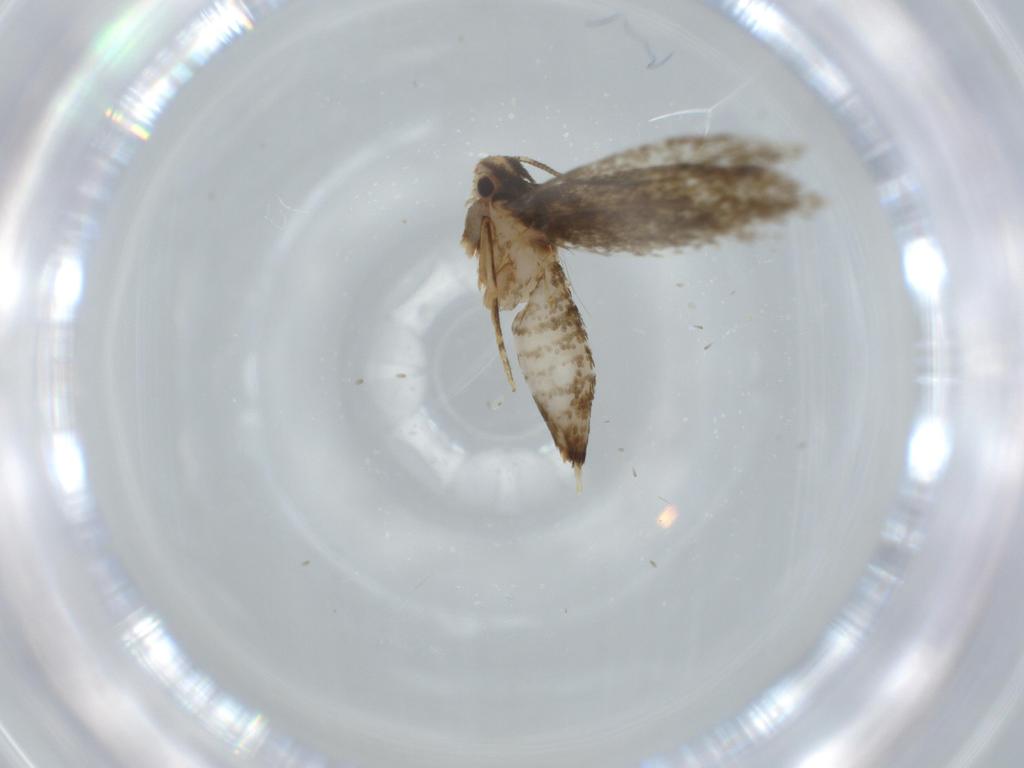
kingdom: Animalia
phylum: Arthropoda
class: Insecta
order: Lepidoptera
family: Tineidae
